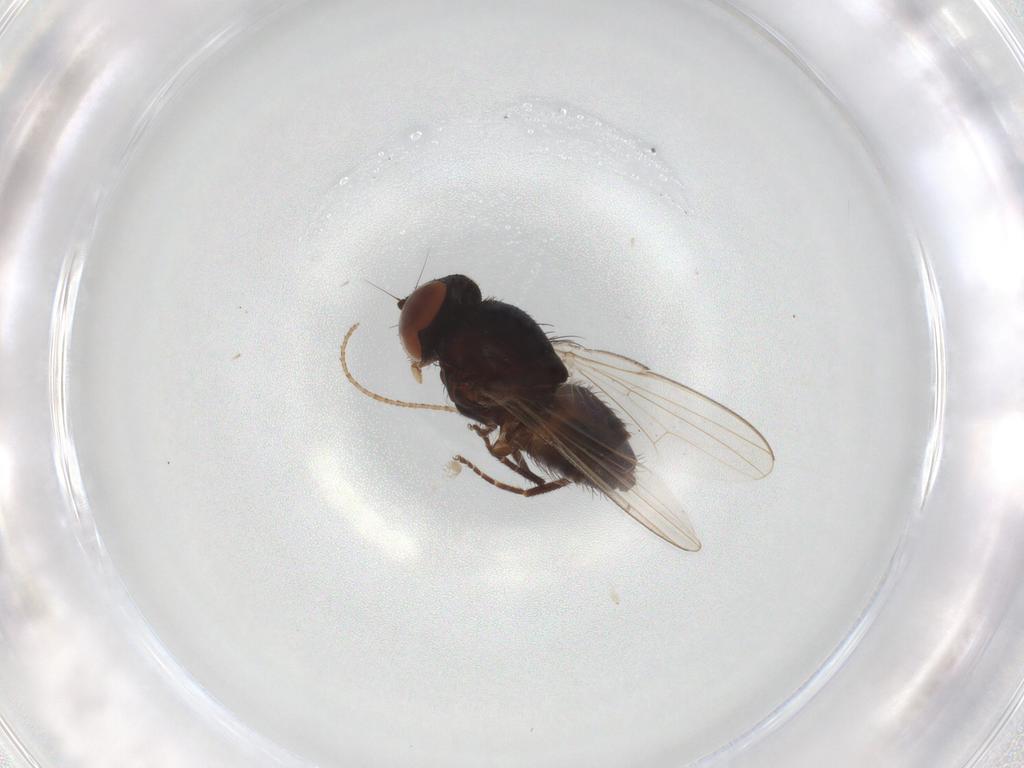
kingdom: Animalia
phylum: Arthropoda
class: Insecta
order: Diptera
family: Milichiidae
